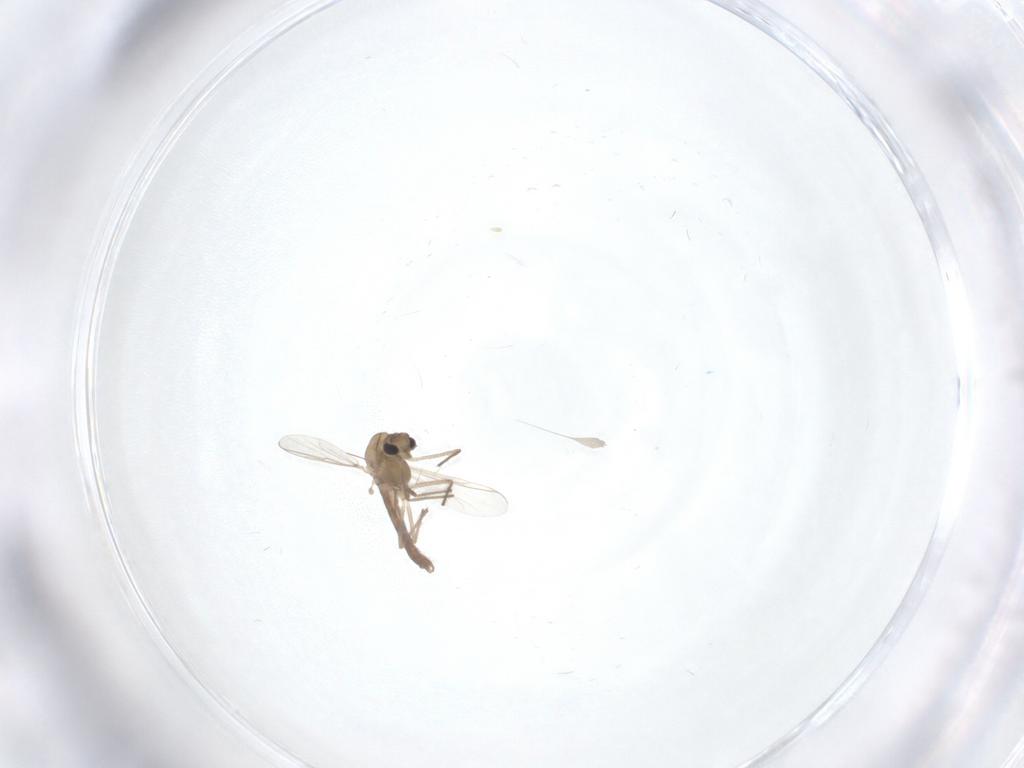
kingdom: Animalia
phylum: Arthropoda
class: Insecta
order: Diptera
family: Chironomidae
